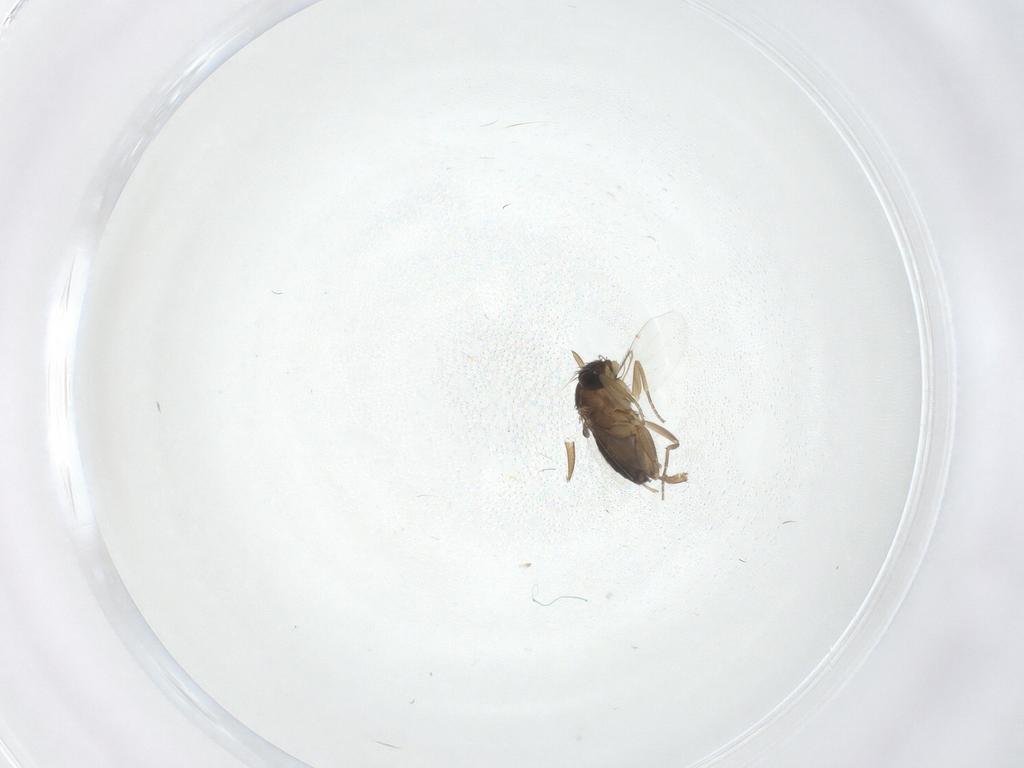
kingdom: Animalia
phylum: Arthropoda
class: Insecta
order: Diptera
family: Phoridae
